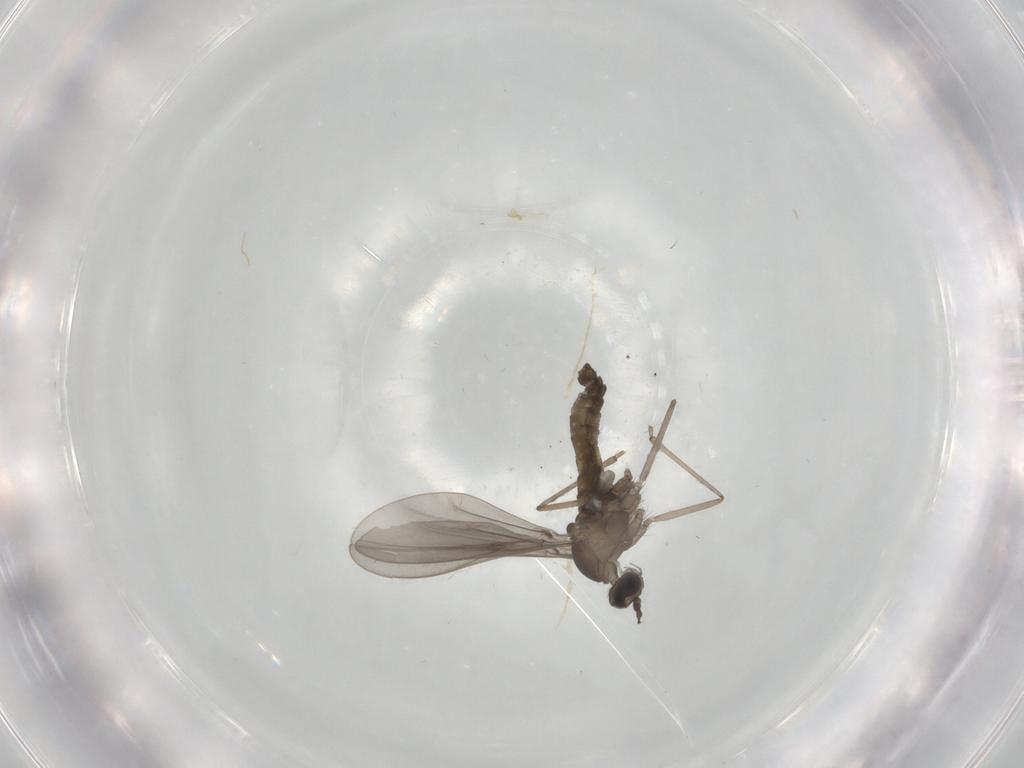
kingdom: Animalia
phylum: Arthropoda
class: Insecta
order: Diptera
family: Cecidomyiidae
